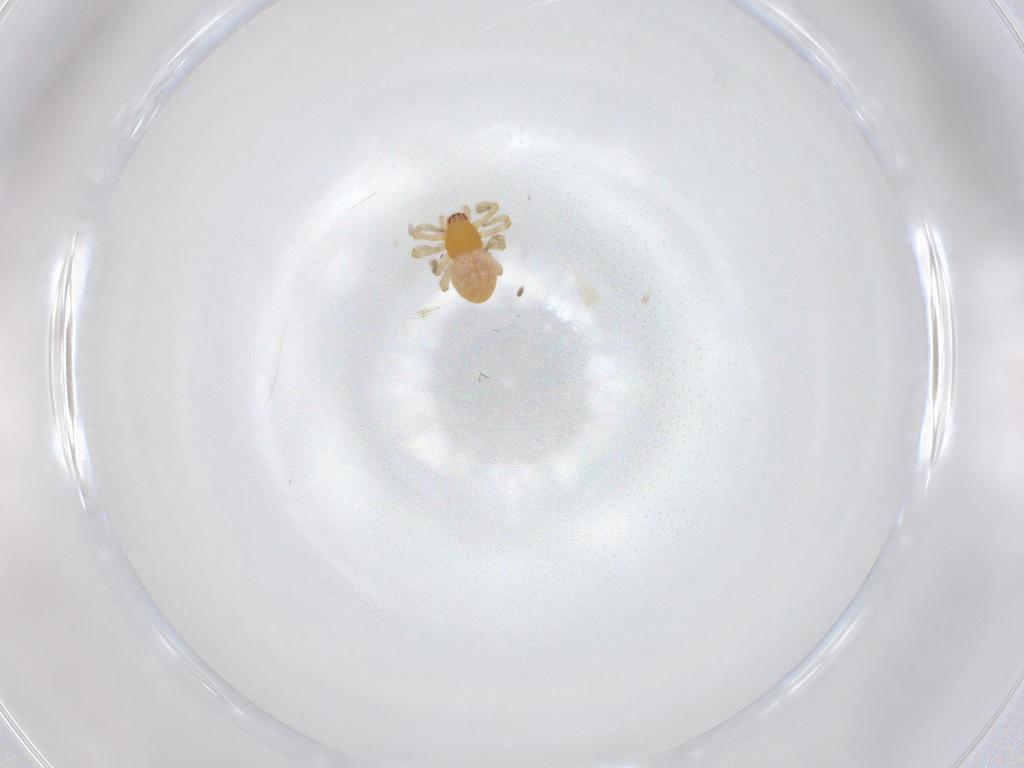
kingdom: Animalia
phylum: Arthropoda
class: Arachnida
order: Araneae
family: Dictynidae
